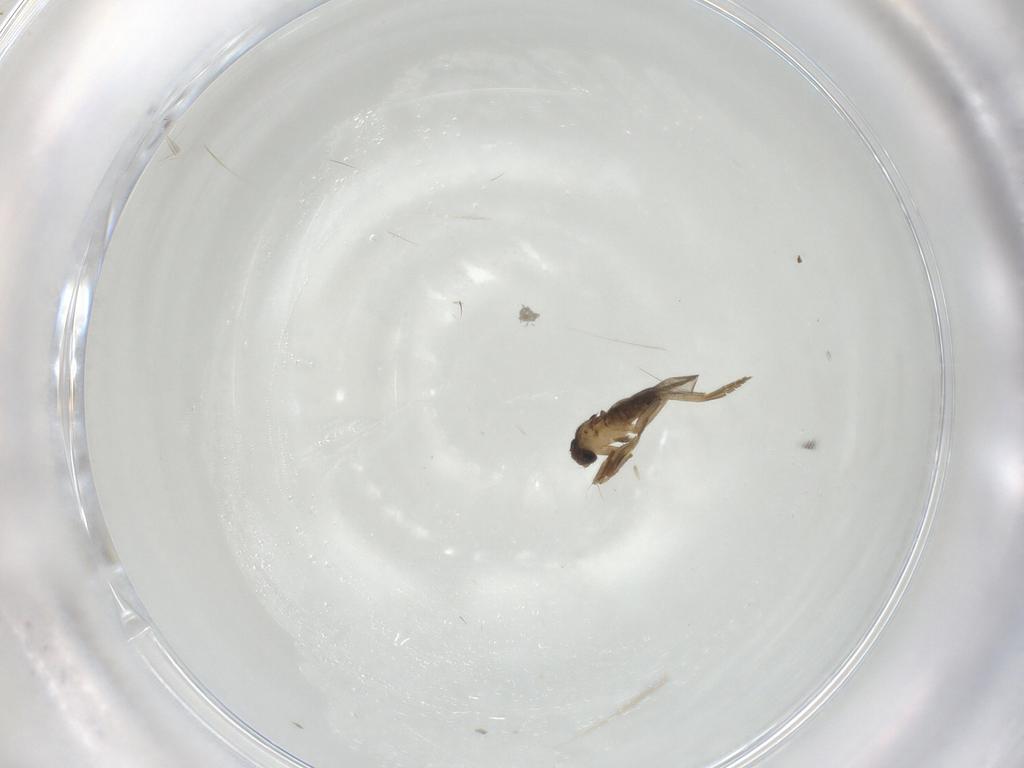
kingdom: Animalia
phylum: Arthropoda
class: Insecta
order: Diptera
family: Phoridae
